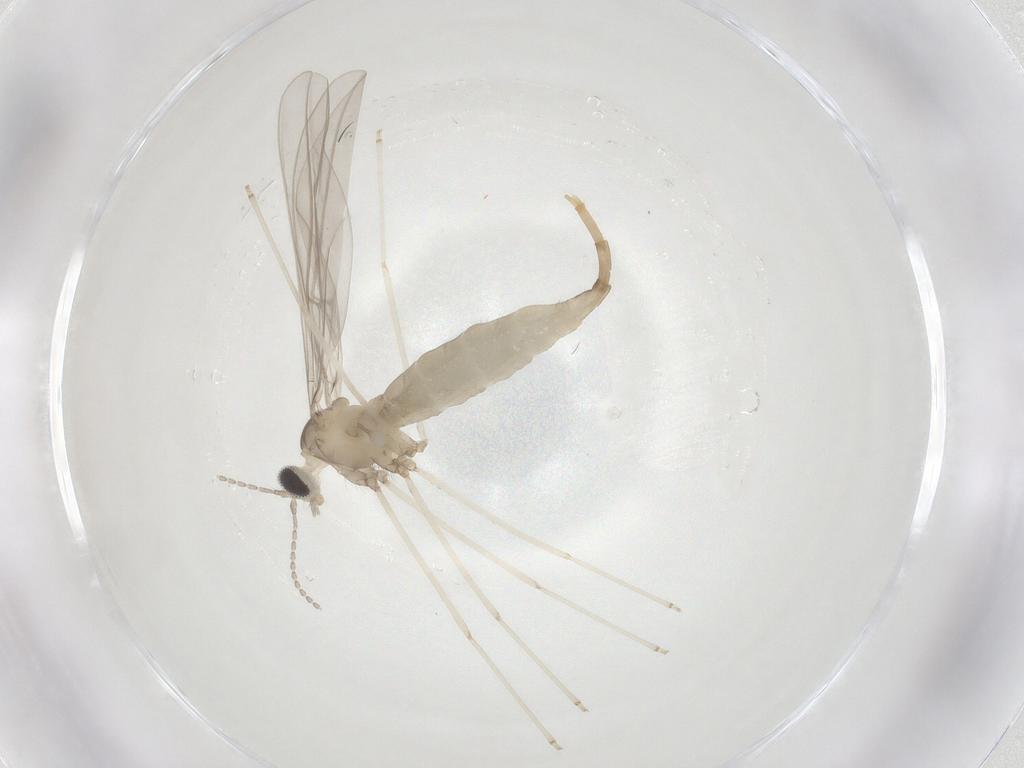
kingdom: Animalia
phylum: Arthropoda
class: Insecta
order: Diptera
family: Cecidomyiidae
